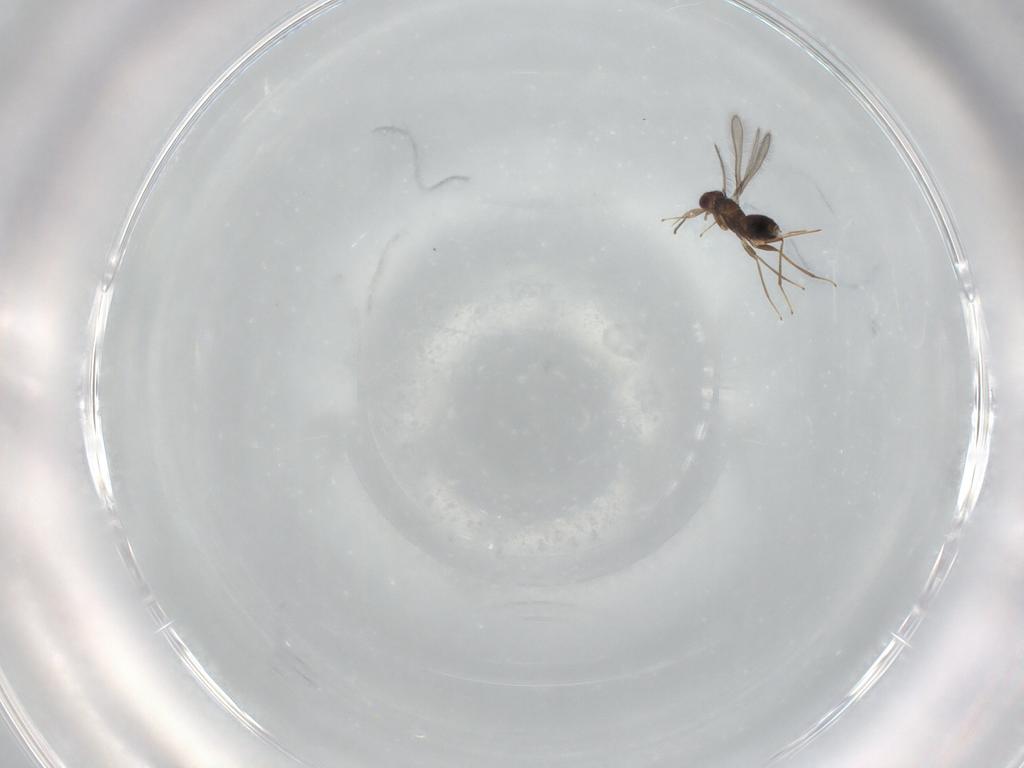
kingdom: Animalia
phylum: Arthropoda
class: Insecta
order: Hymenoptera
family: Mymaridae
